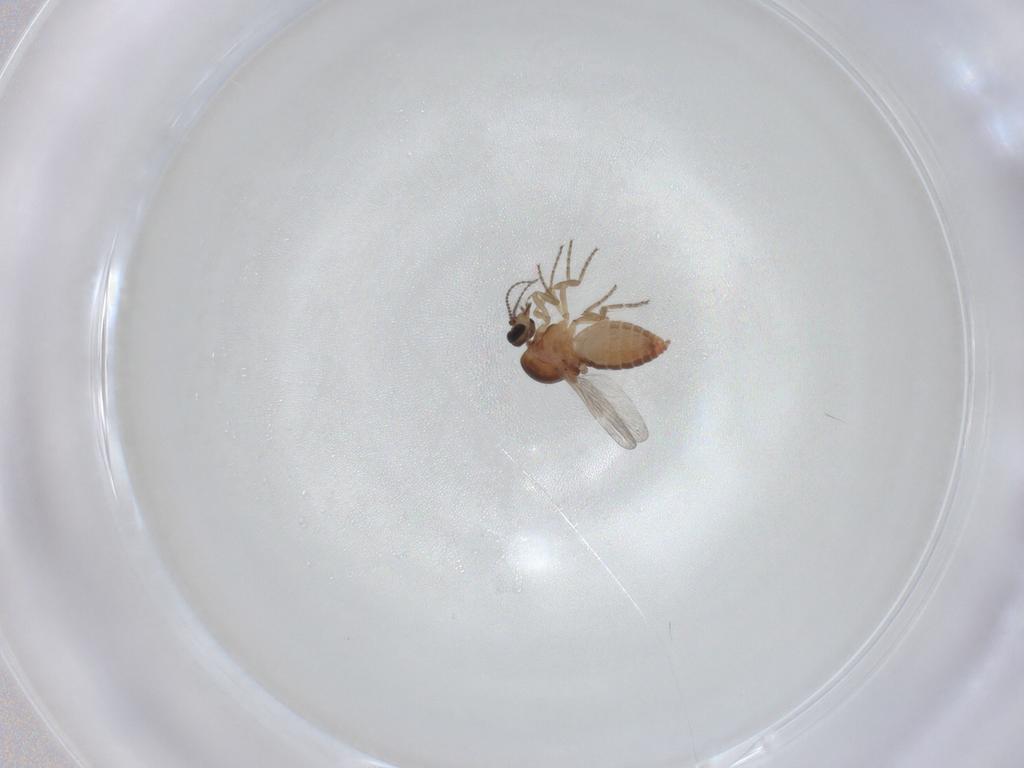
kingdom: Animalia
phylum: Arthropoda
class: Insecta
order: Diptera
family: Ceratopogonidae
